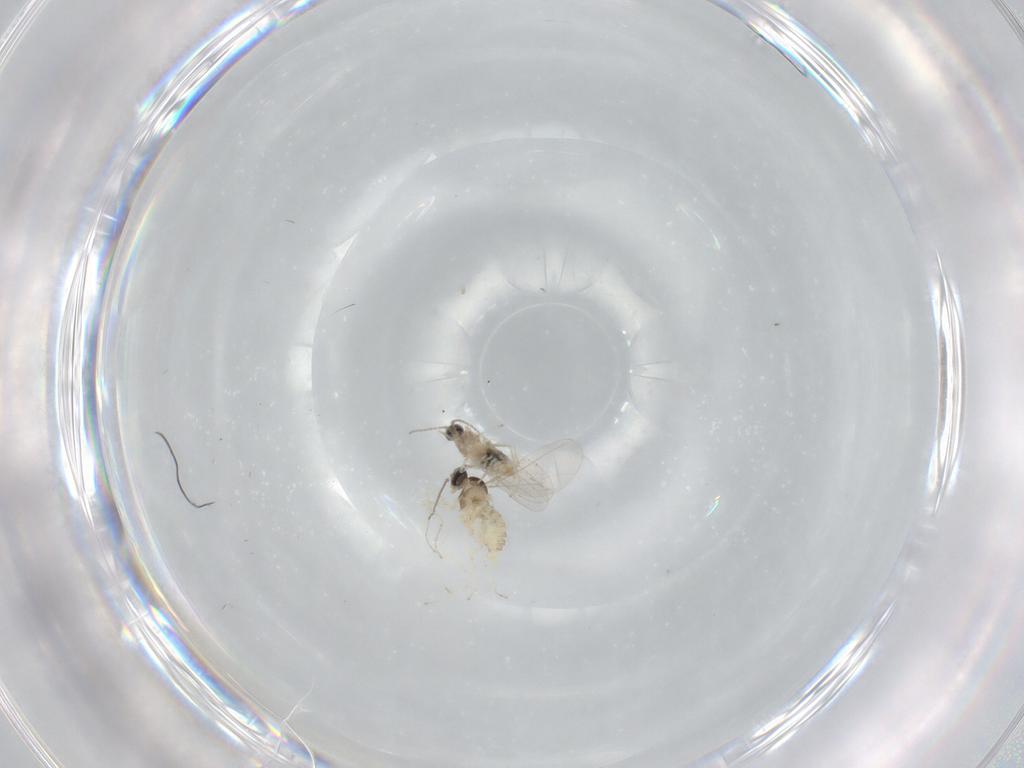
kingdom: Animalia
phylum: Arthropoda
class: Insecta
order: Diptera
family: Cecidomyiidae
